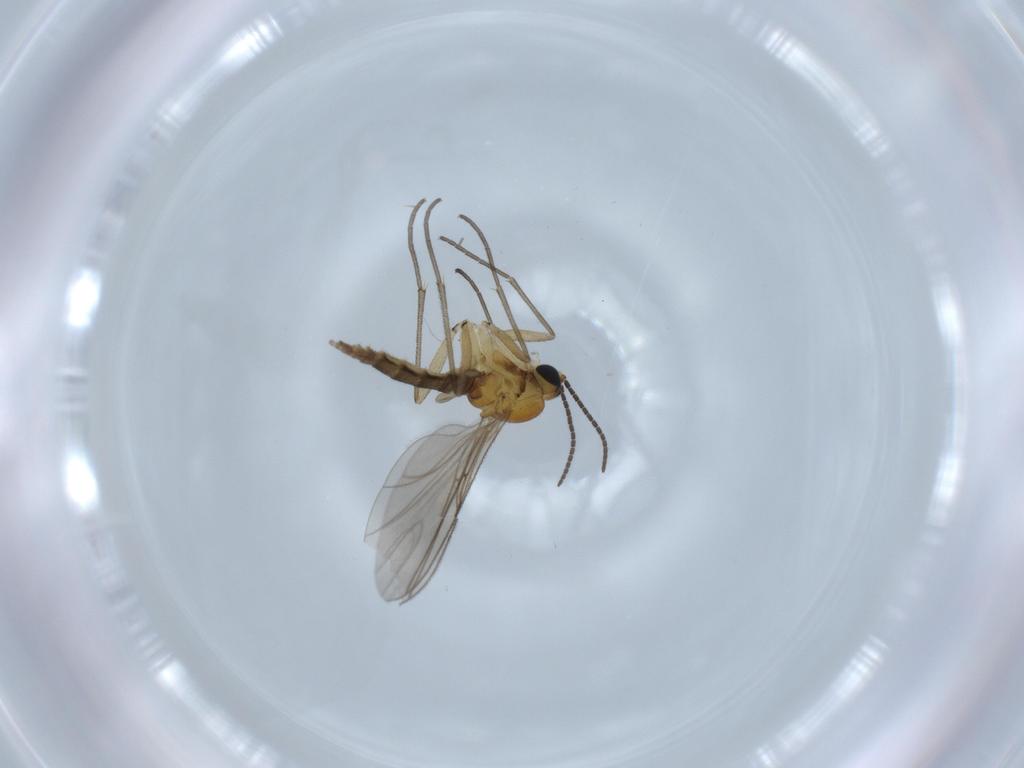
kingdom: Animalia
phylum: Arthropoda
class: Insecta
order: Diptera
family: Chironomidae
